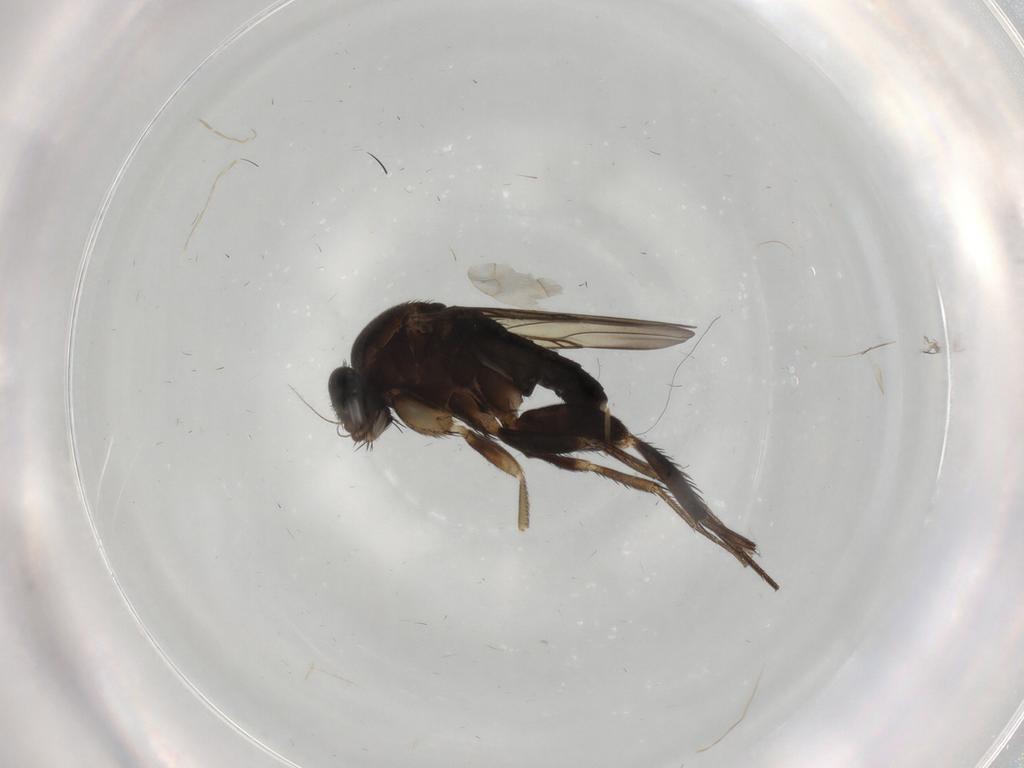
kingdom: Animalia
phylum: Arthropoda
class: Insecta
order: Diptera
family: Phoridae
